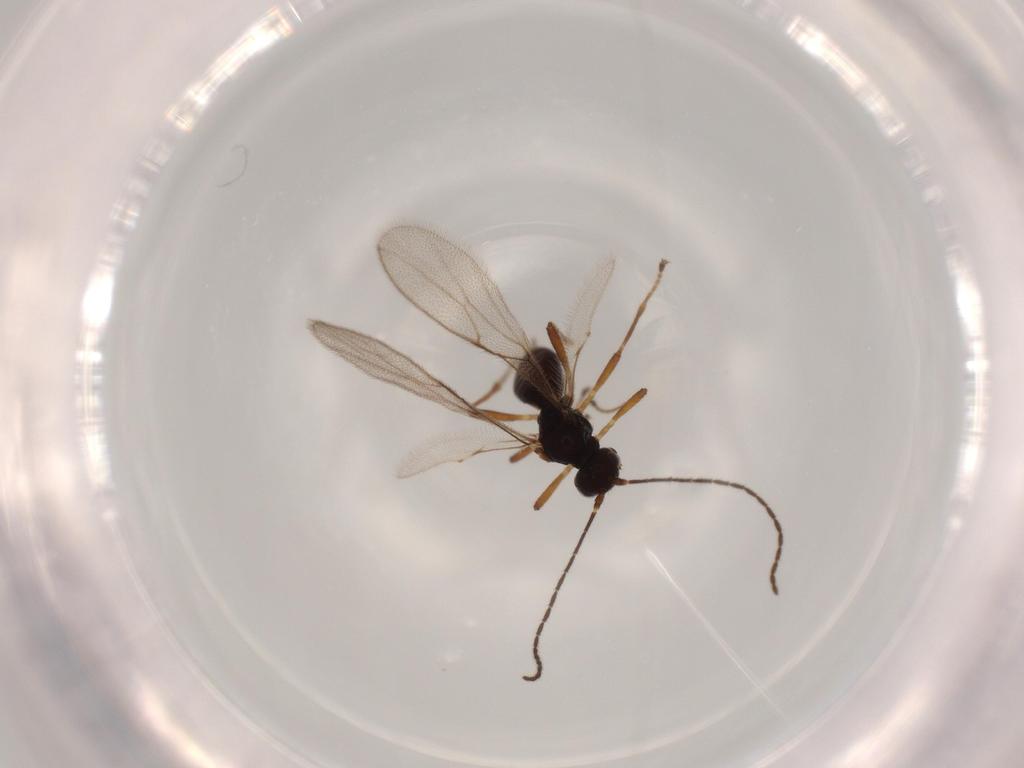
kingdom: Animalia
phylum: Arthropoda
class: Insecta
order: Hymenoptera
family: Braconidae
